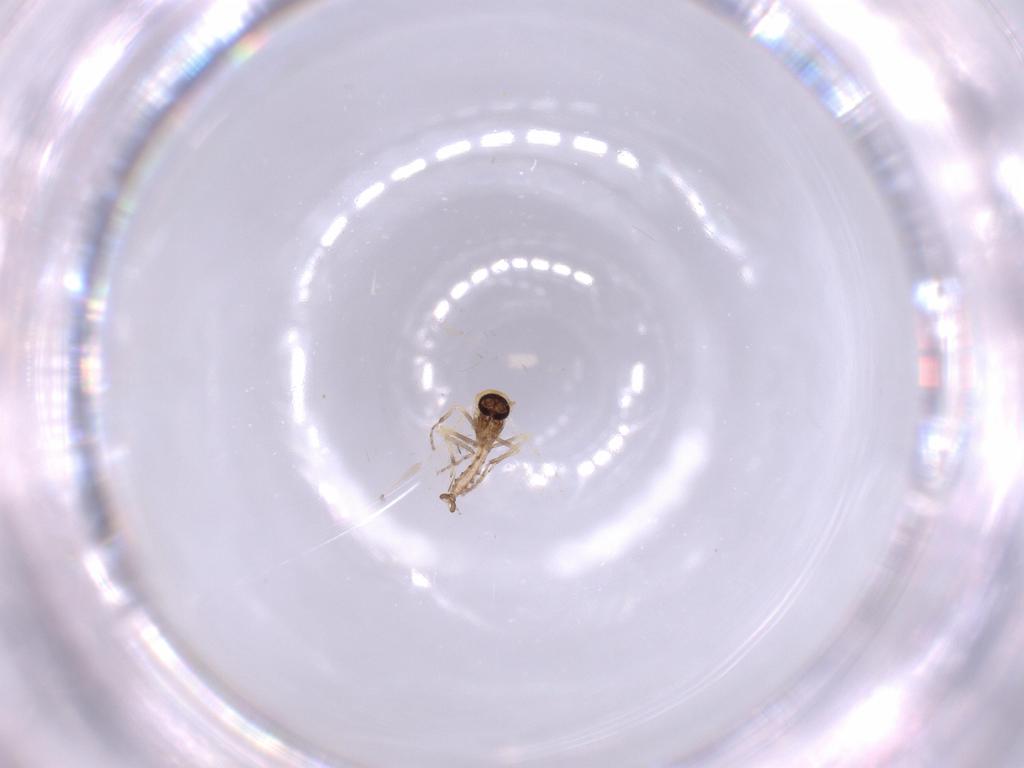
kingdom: Animalia
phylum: Arthropoda
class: Insecta
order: Diptera
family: Ceratopogonidae
